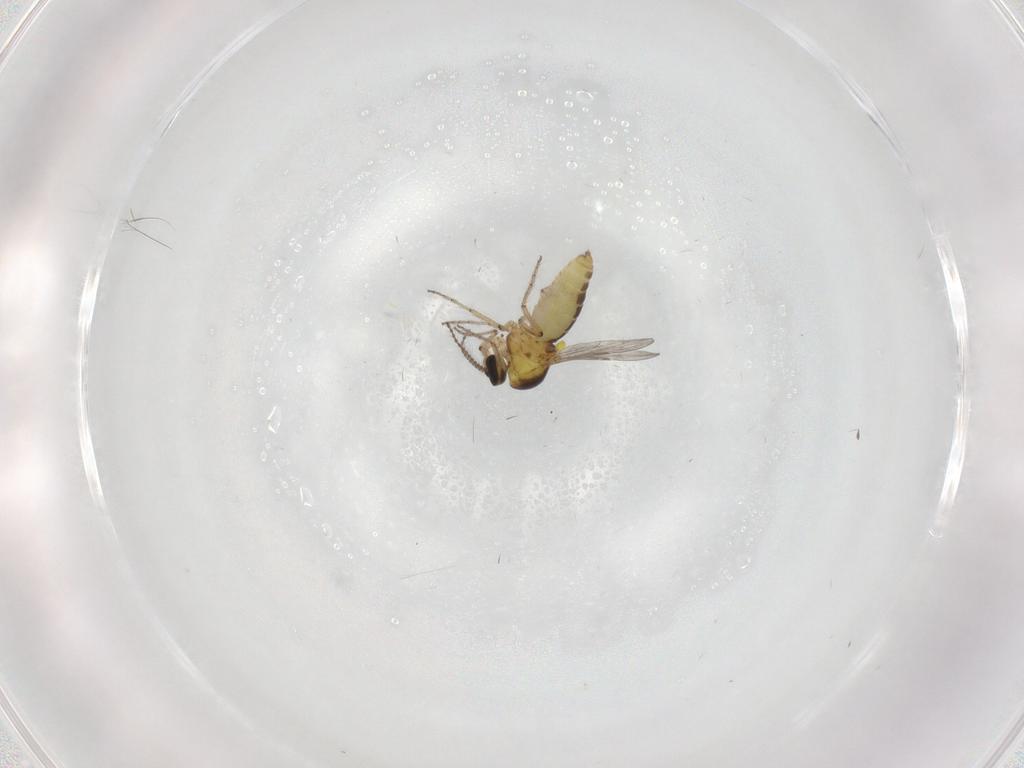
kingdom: Animalia
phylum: Arthropoda
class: Insecta
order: Diptera
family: Ceratopogonidae
